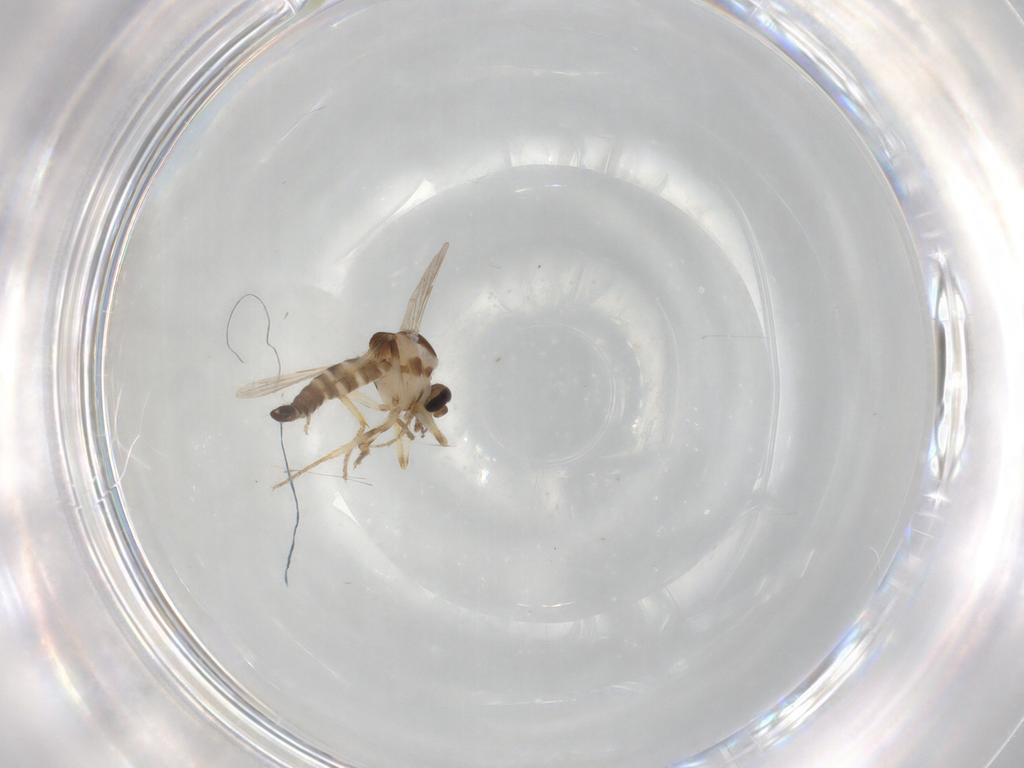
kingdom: Animalia
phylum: Arthropoda
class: Insecta
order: Diptera
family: Ceratopogonidae
